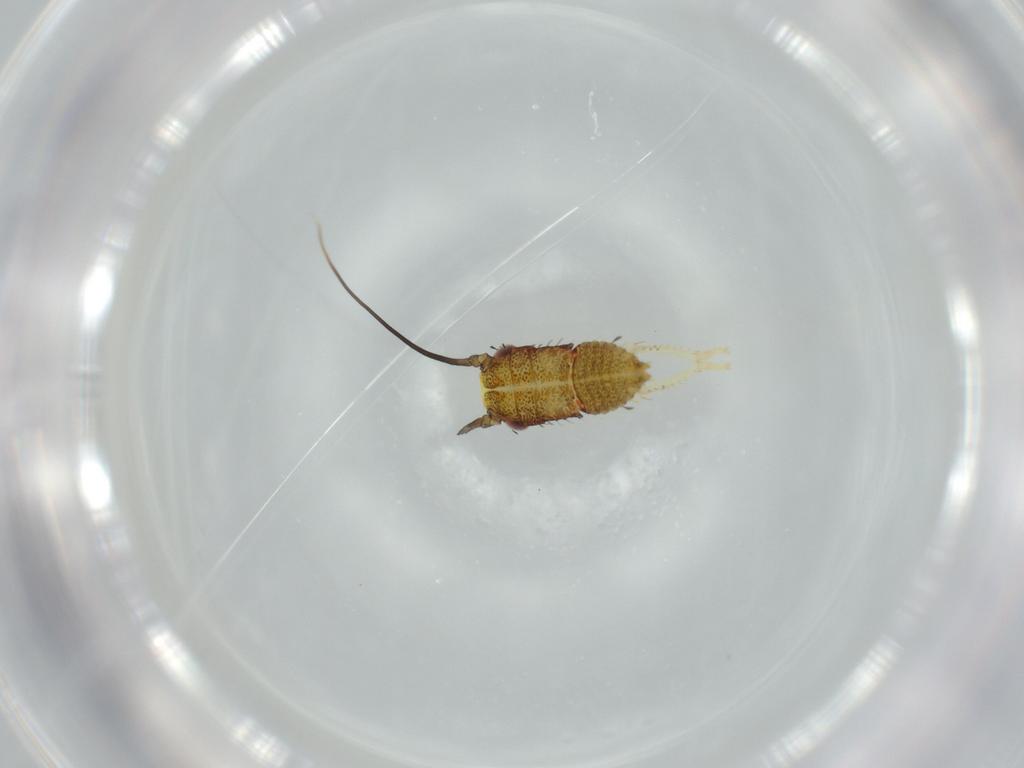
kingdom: Animalia
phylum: Arthropoda
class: Insecta
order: Hemiptera
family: Cicadellidae
